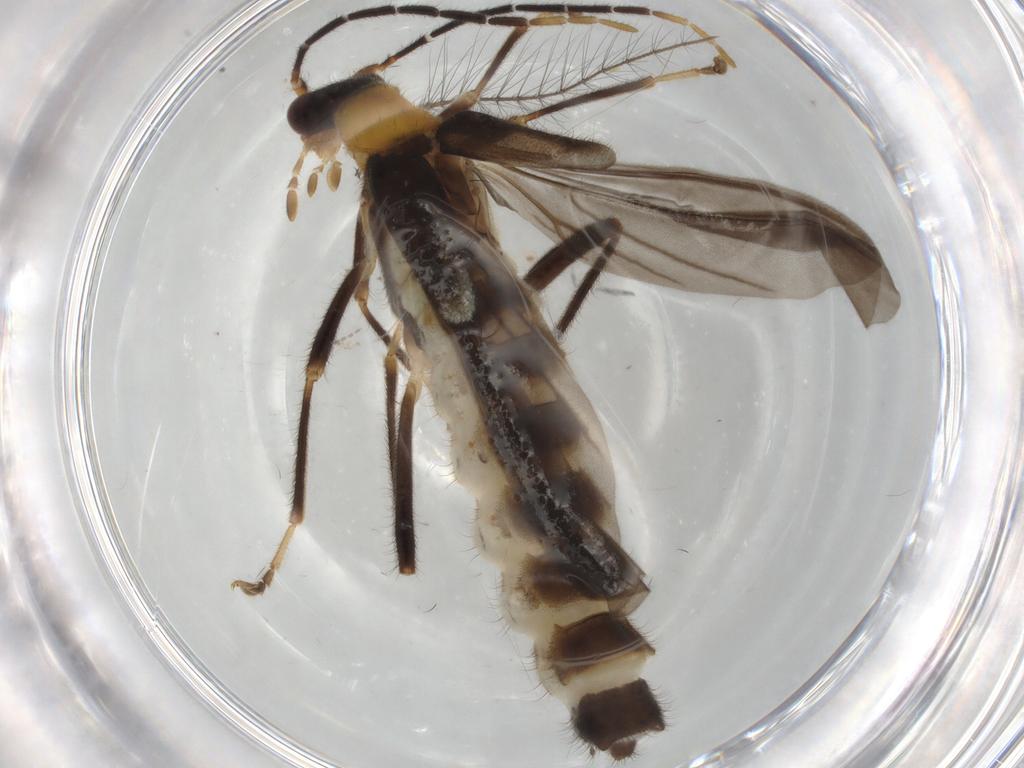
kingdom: Animalia
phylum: Arthropoda
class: Insecta
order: Coleoptera
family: Cantharidae
